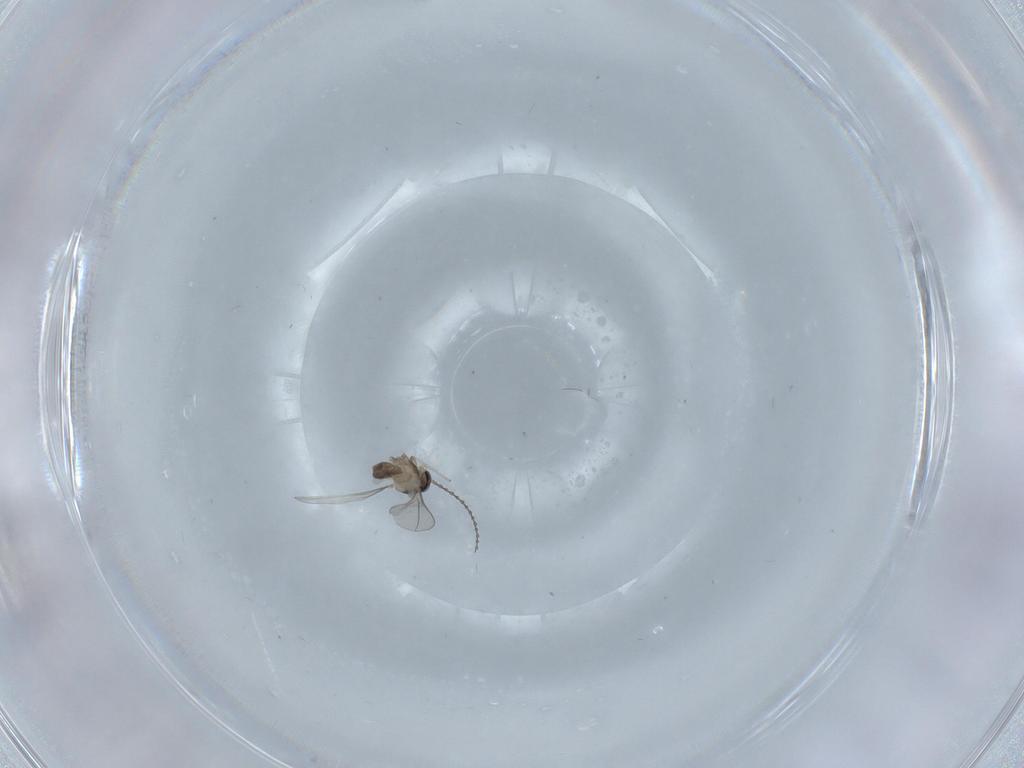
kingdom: Animalia
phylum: Arthropoda
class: Insecta
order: Diptera
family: Cecidomyiidae
